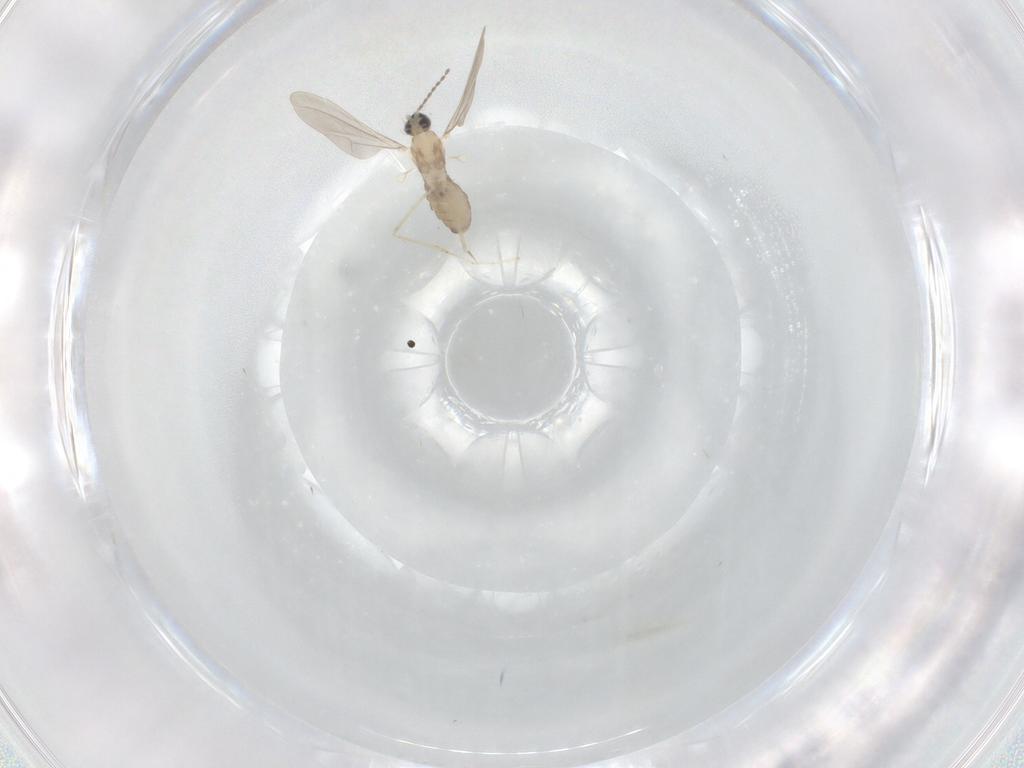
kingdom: Animalia
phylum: Arthropoda
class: Insecta
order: Diptera
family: Cecidomyiidae
